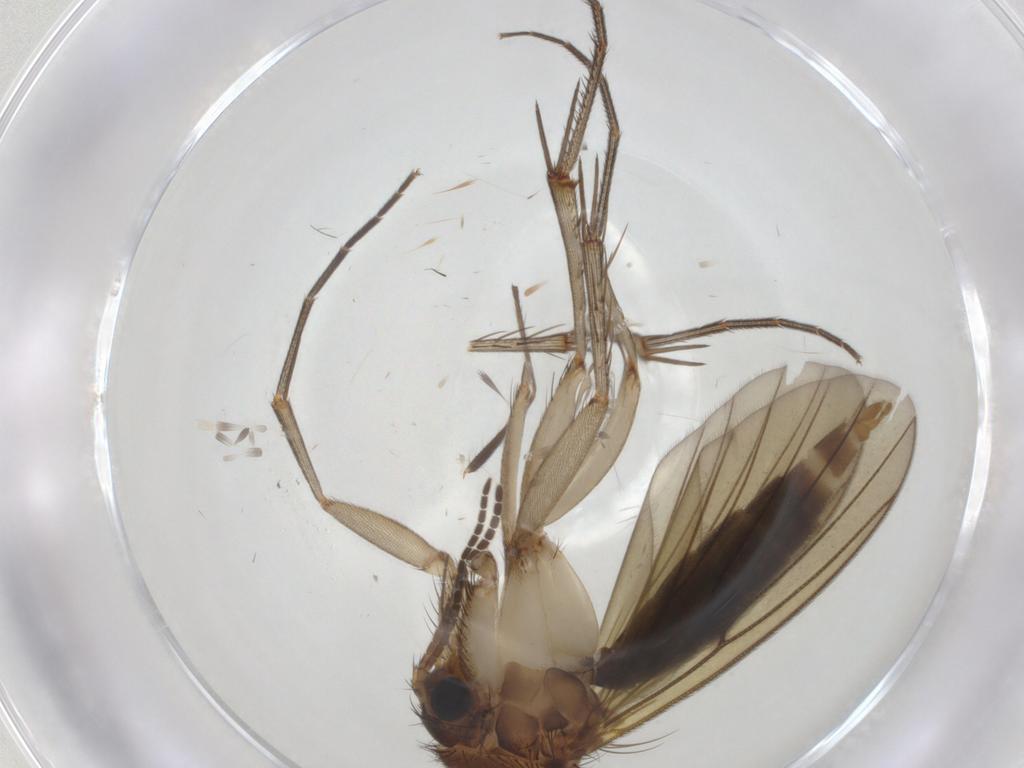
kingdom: Animalia
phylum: Arthropoda
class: Insecta
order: Diptera
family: Mycetophilidae
